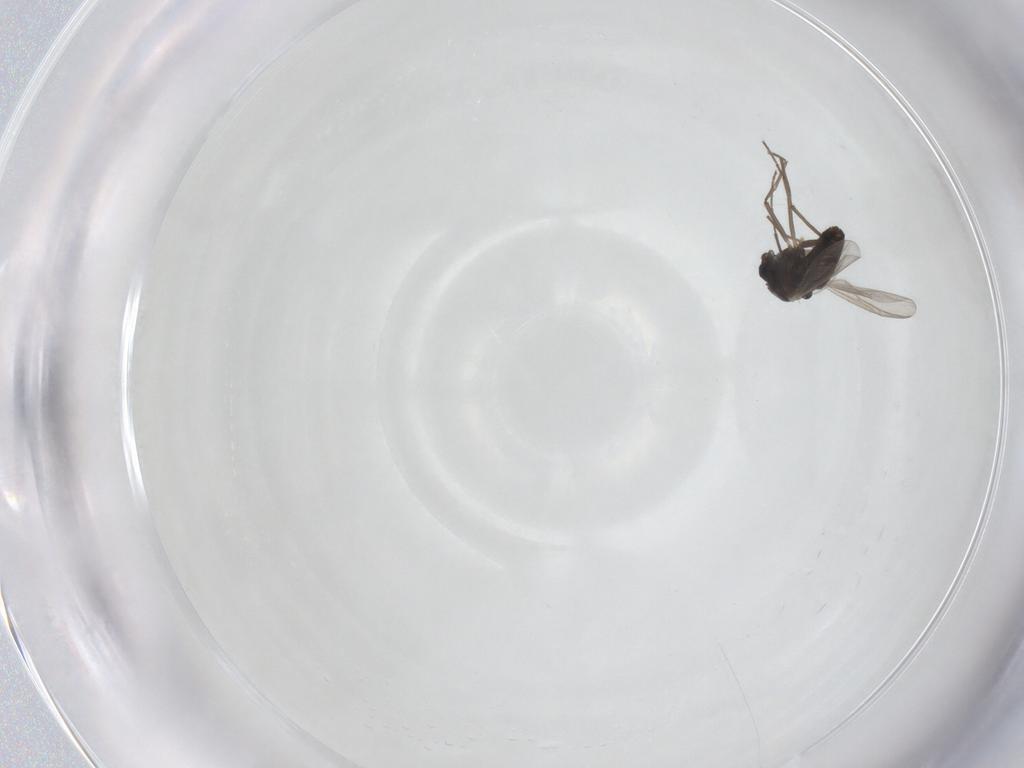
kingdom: Animalia
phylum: Arthropoda
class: Insecta
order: Diptera
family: Chironomidae
